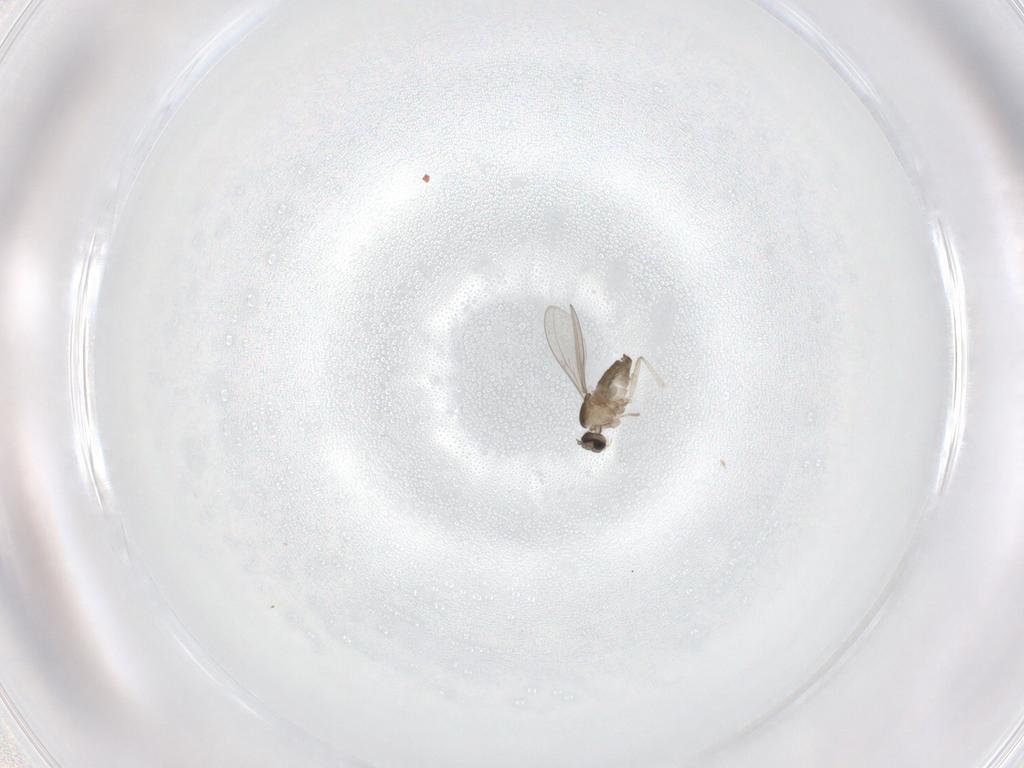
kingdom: Animalia
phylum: Arthropoda
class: Insecta
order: Diptera
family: Cecidomyiidae
